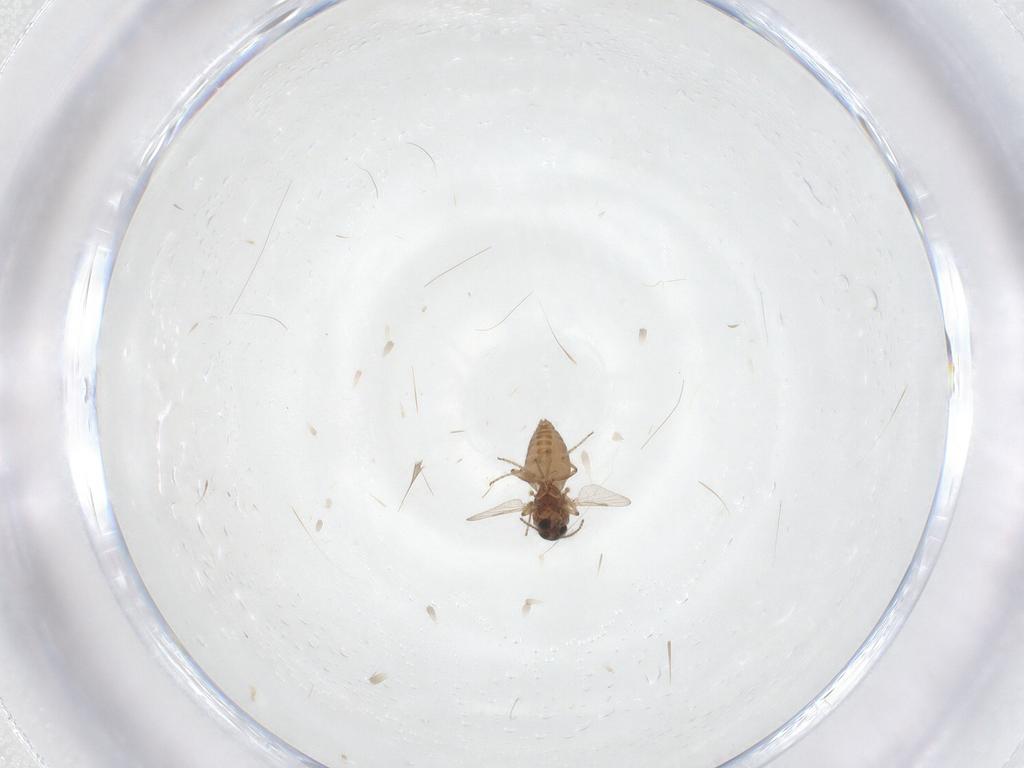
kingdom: Animalia
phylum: Arthropoda
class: Insecta
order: Diptera
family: Ceratopogonidae
